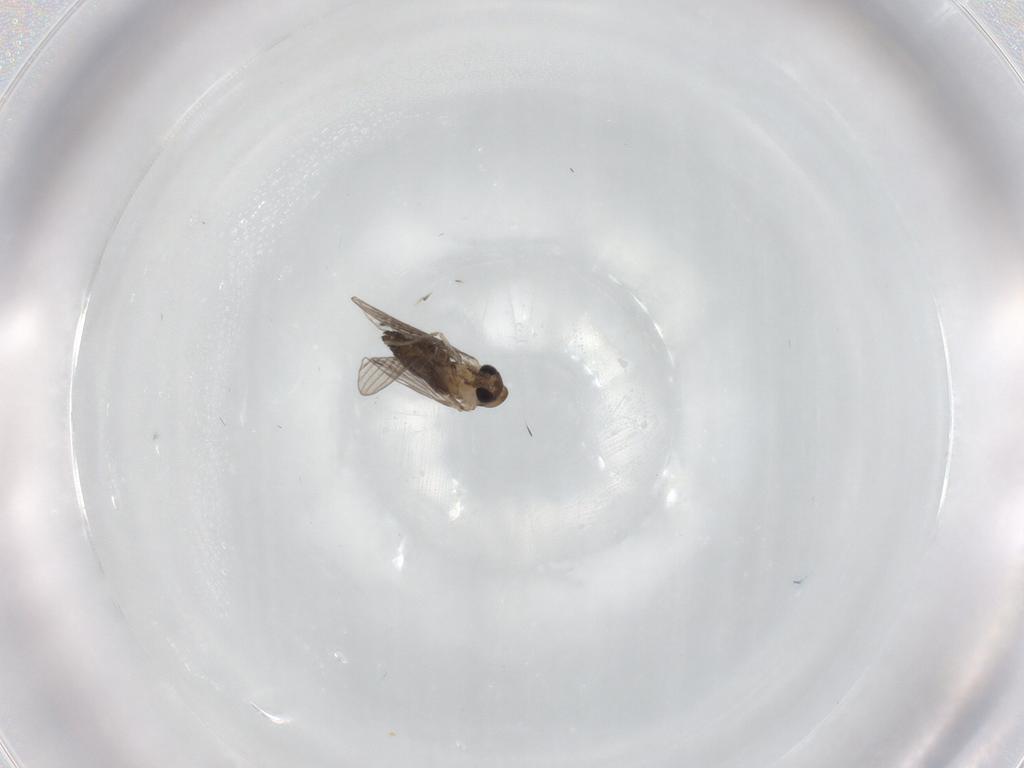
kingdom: Animalia
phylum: Arthropoda
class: Insecta
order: Diptera
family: Psychodidae
